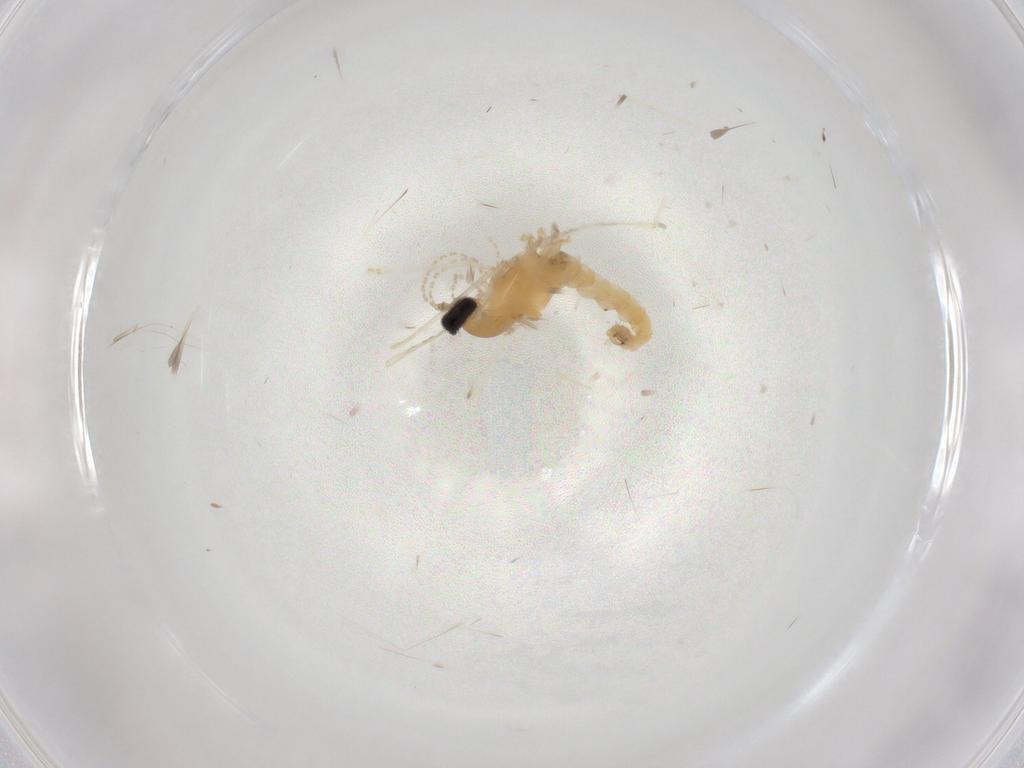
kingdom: Animalia
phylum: Arthropoda
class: Insecta
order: Diptera
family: Cecidomyiidae
